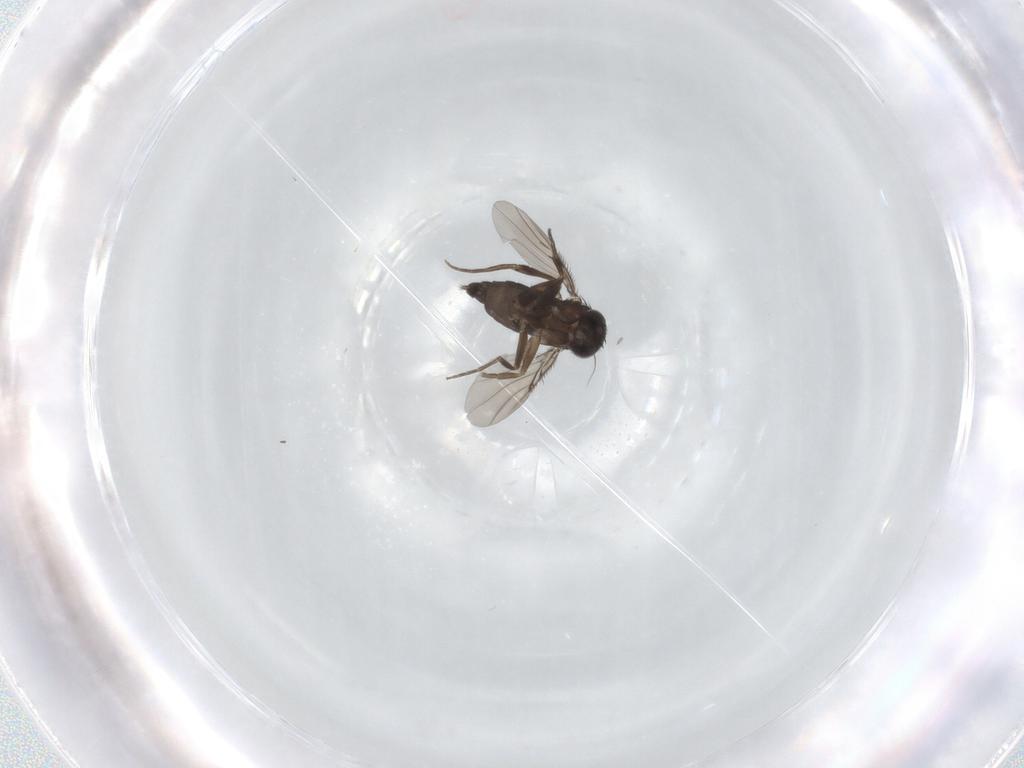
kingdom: Animalia
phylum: Arthropoda
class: Insecta
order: Diptera
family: Phoridae
